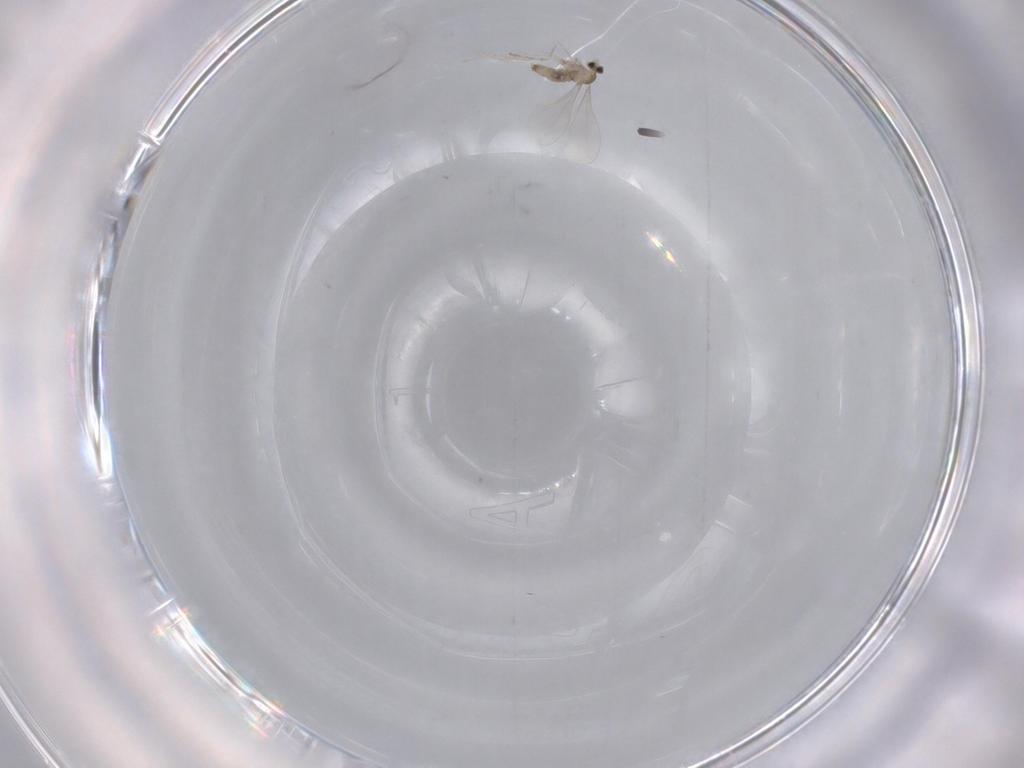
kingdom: Animalia
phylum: Arthropoda
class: Insecta
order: Diptera
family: Cecidomyiidae
